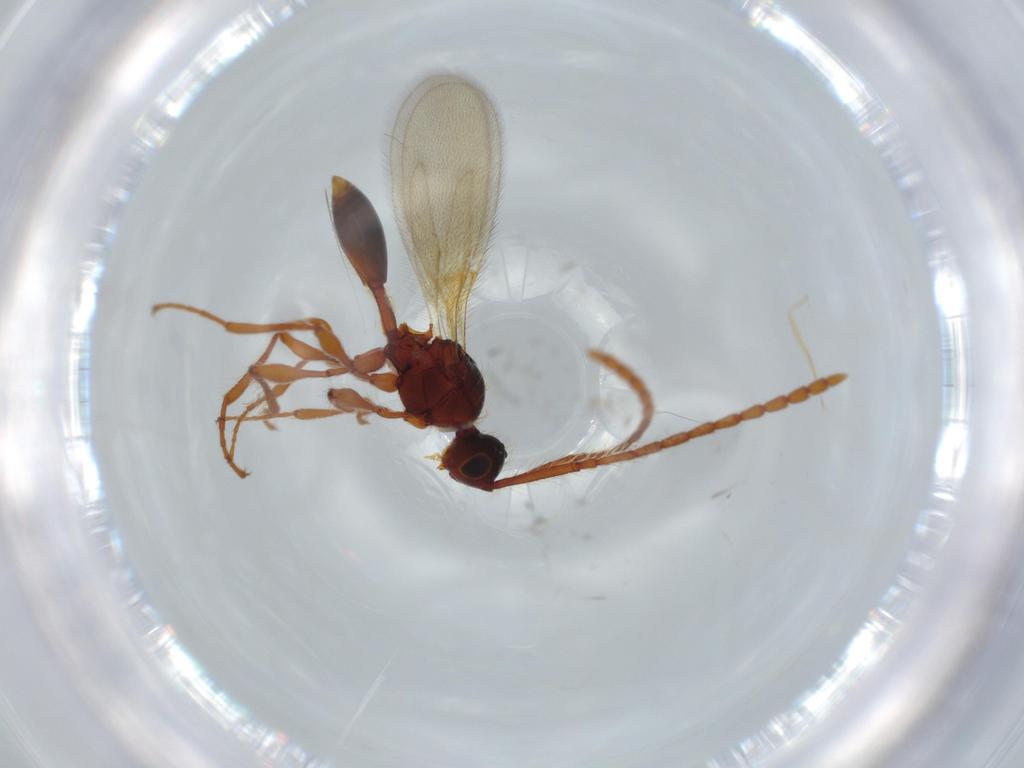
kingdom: Animalia
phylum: Arthropoda
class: Insecta
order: Hymenoptera
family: Diapriidae
